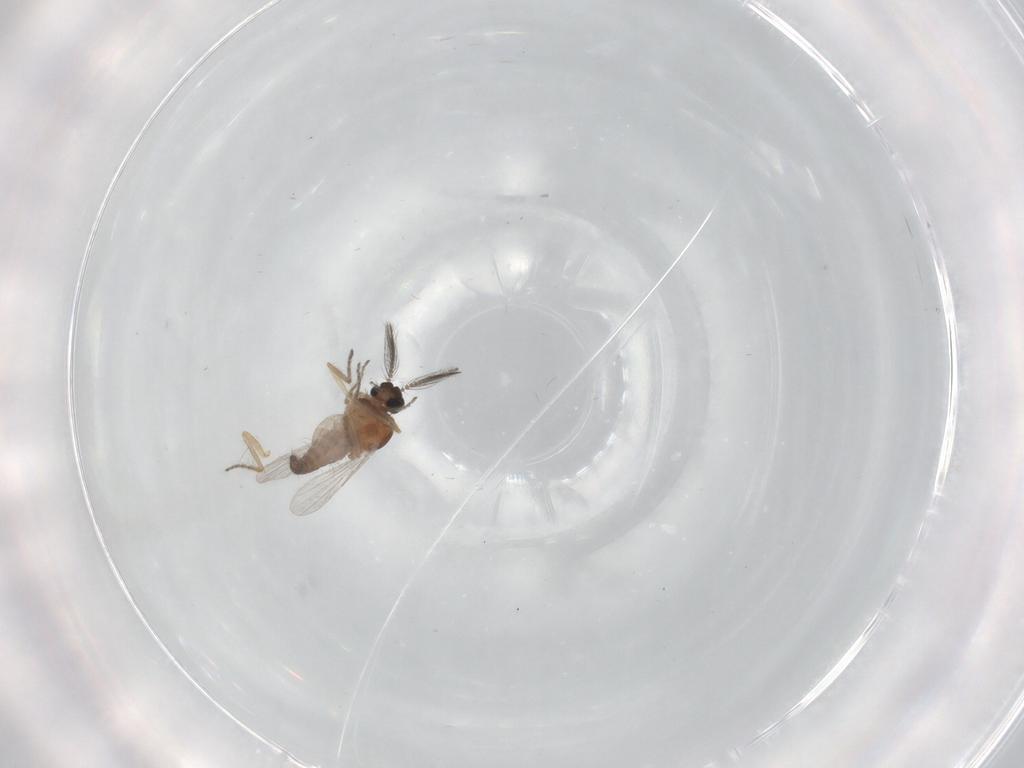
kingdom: Animalia
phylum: Arthropoda
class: Insecta
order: Diptera
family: Ceratopogonidae
